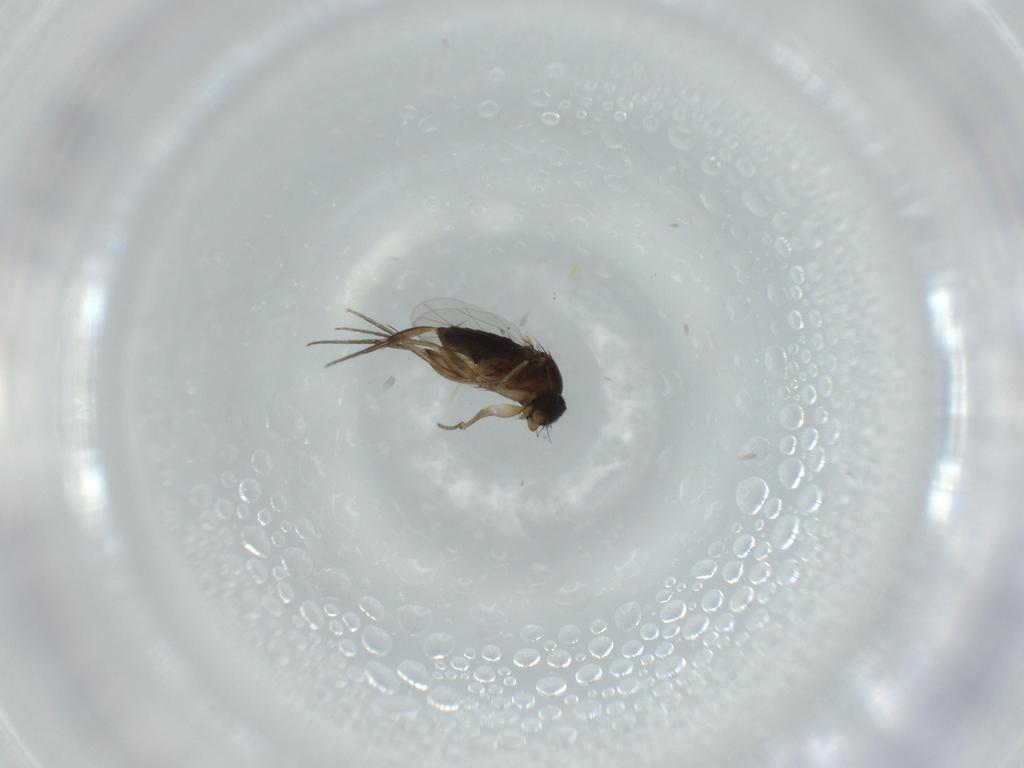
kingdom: Animalia
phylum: Arthropoda
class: Insecta
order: Diptera
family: Phoridae
